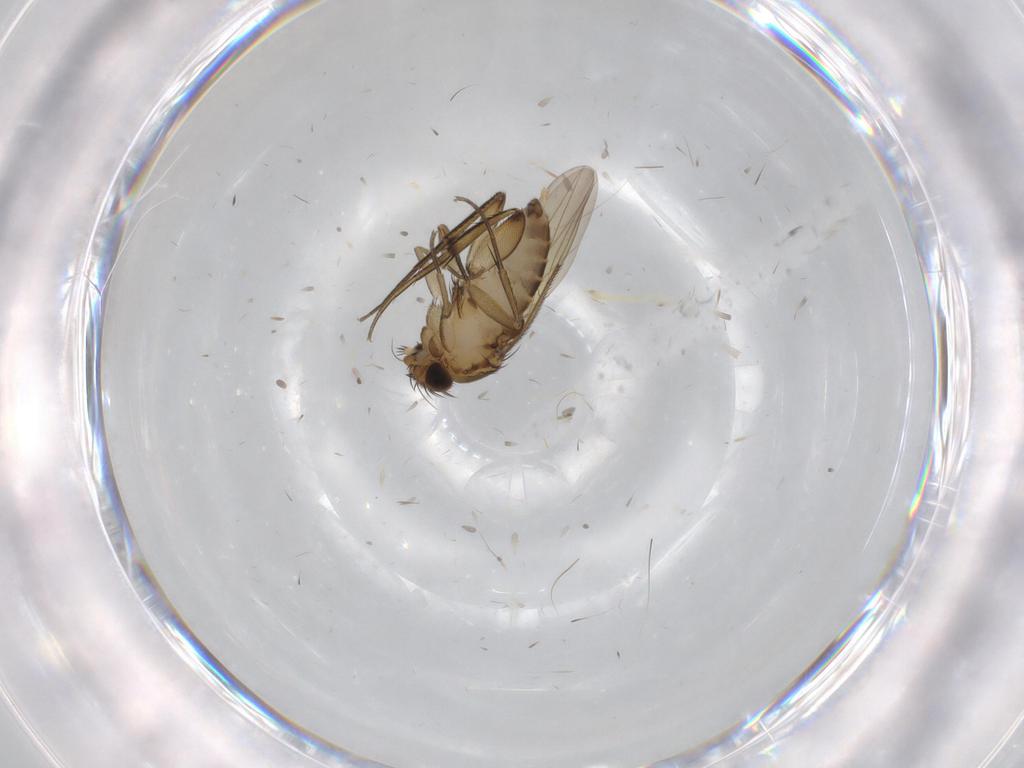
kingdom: Animalia
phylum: Arthropoda
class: Insecta
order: Diptera
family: Phoridae
